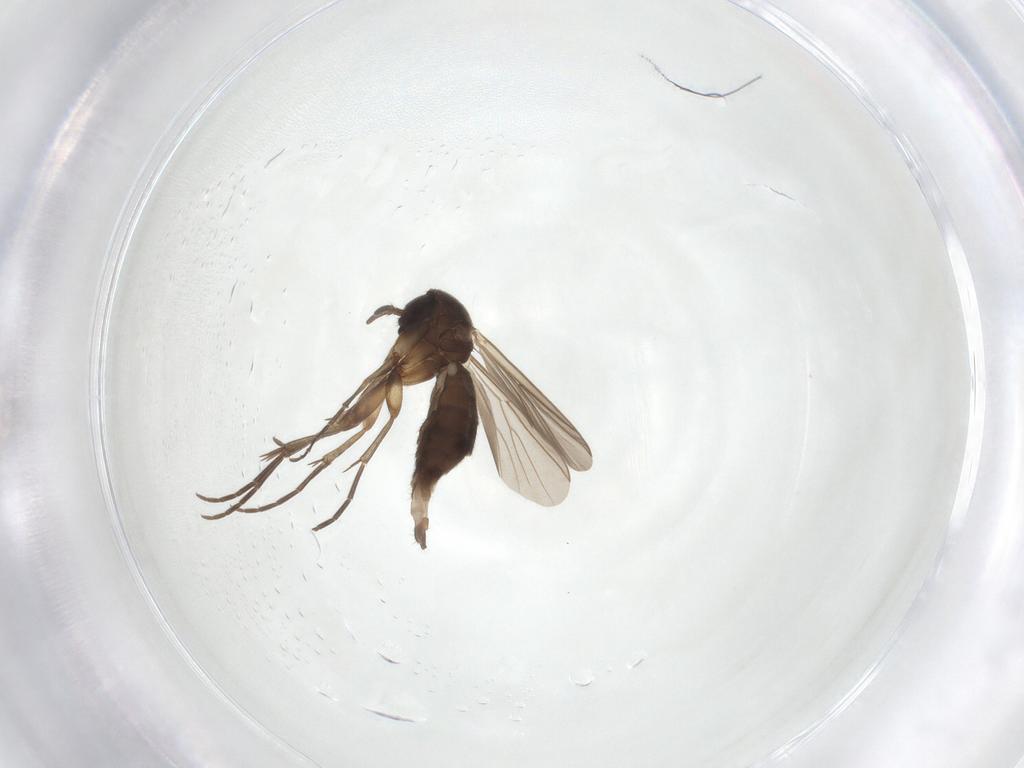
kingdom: Animalia
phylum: Arthropoda
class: Insecta
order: Diptera
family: Mycetophilidae
